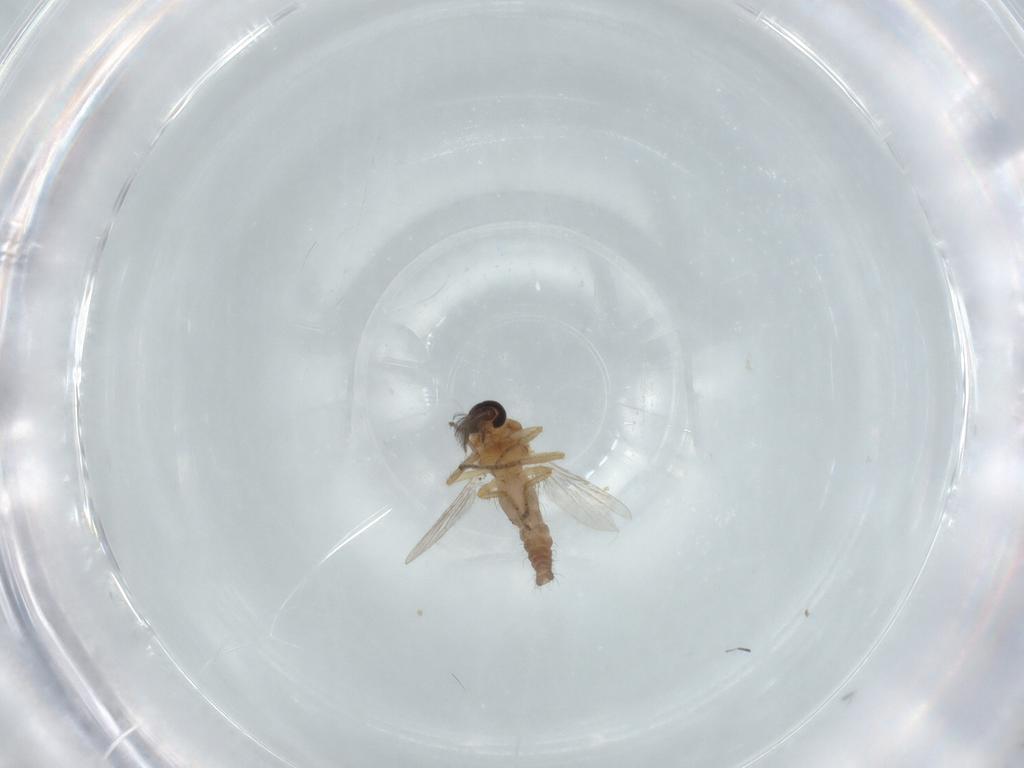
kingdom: Animalia
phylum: Arthropoda
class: Insecta
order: Diptera
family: Ceratopogonidae
